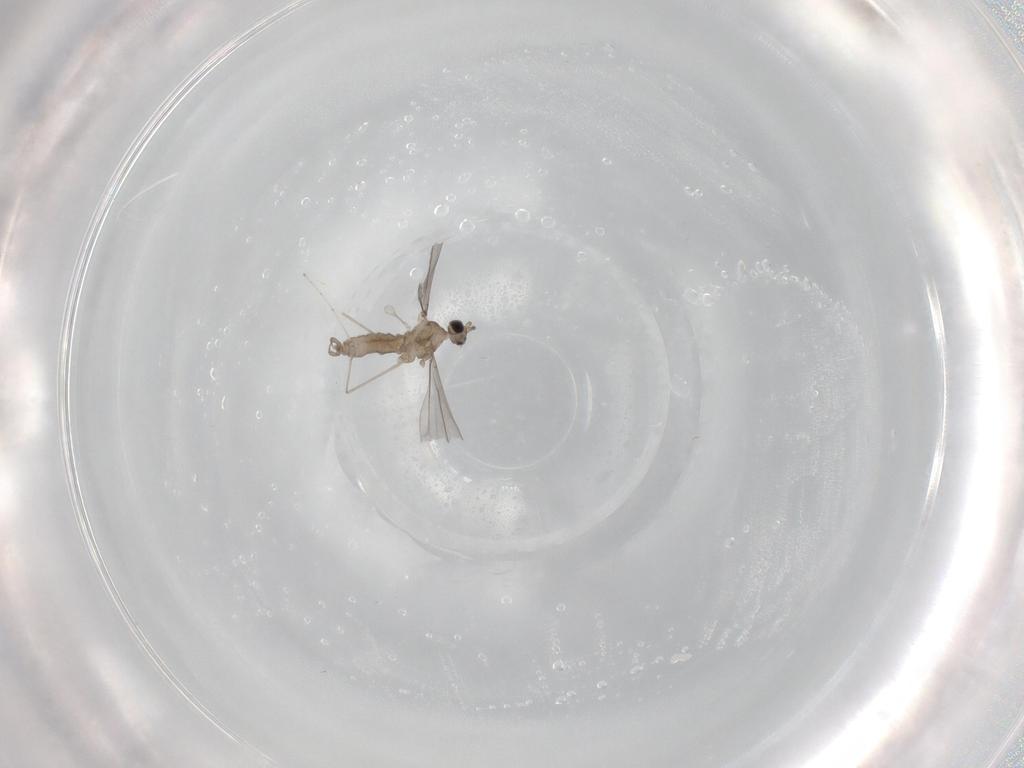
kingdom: Animalia
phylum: Arthropoda
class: Insecta
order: Diptera
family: Cecidomyiidae
